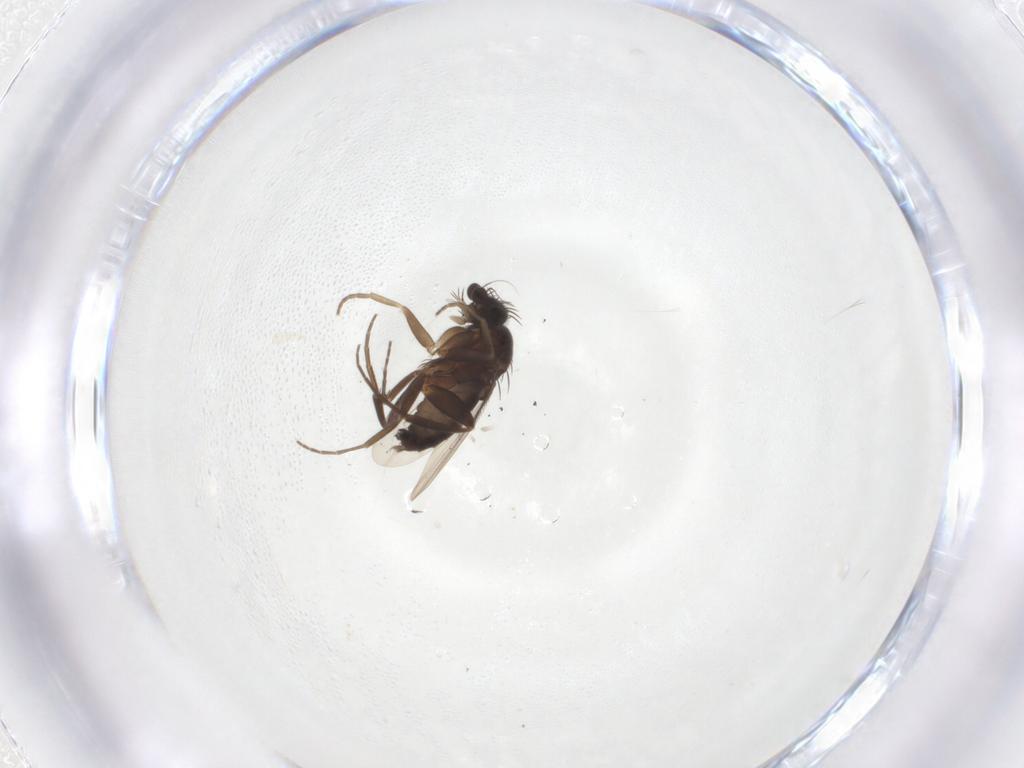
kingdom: Animalia
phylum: Arthropoda
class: Insecta
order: Diptera
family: Phoridae
